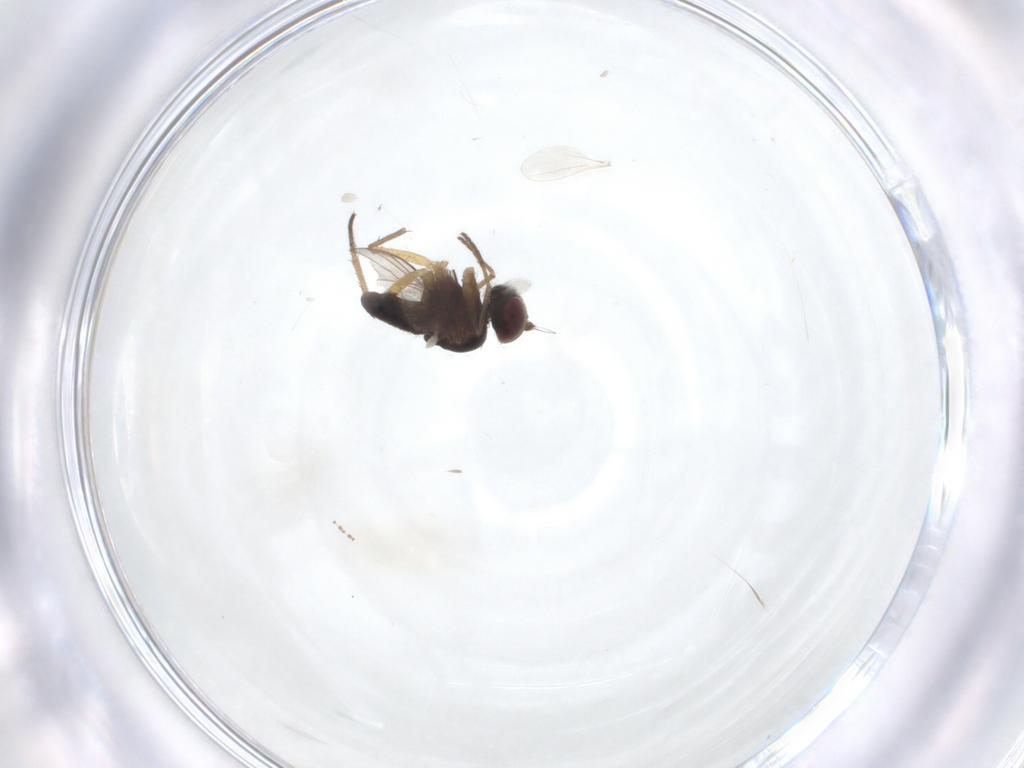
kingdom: Animalia
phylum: Arthropoda
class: Insecta
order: Diptera
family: Dolichopodidae
